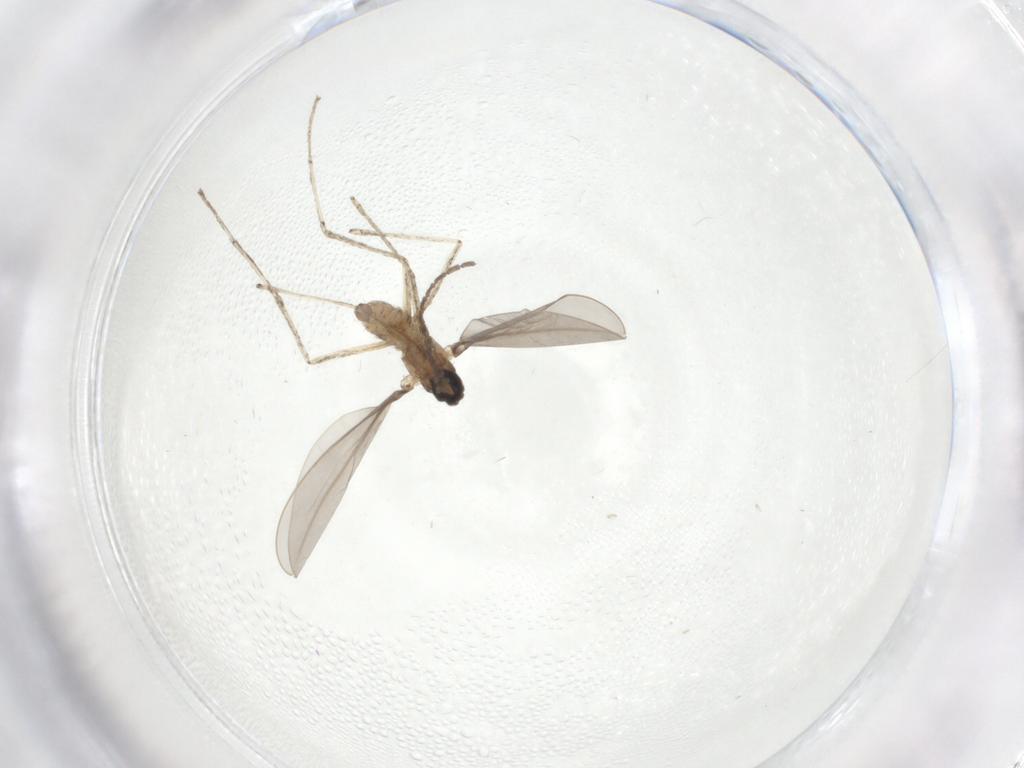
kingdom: Animalia
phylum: Arthropoda
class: Insecta
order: Diptera
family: Cecidomyiidae
